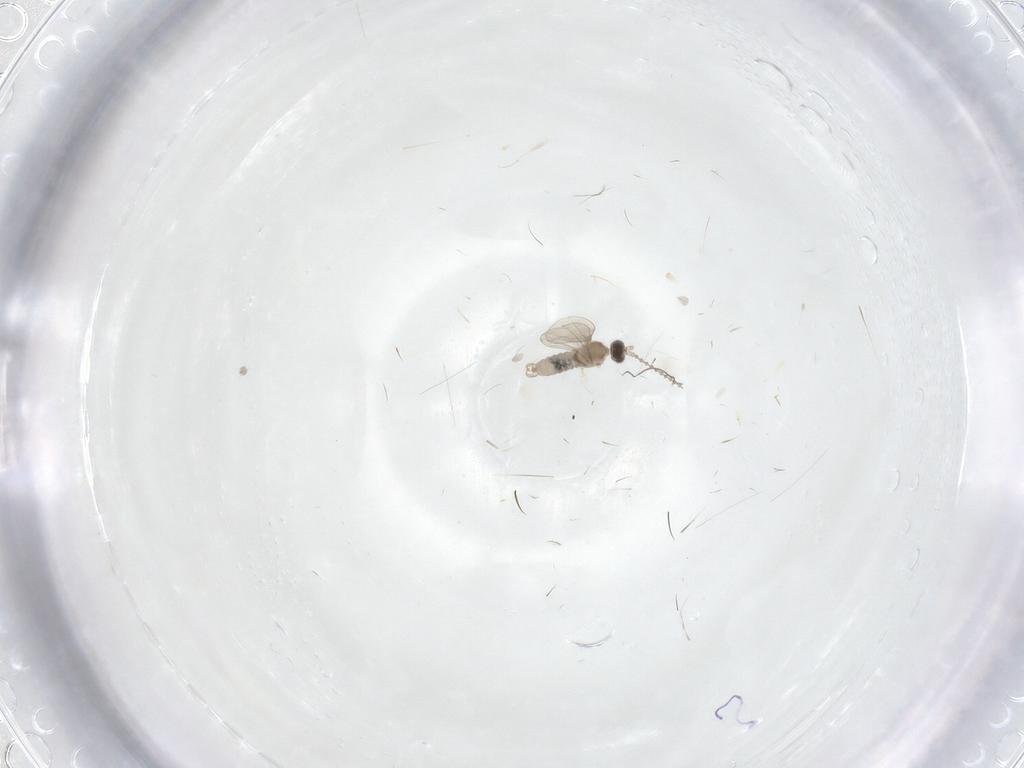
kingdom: Animalia
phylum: Arthropoda
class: Insecta
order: Diptera
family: Cecidomyiidae
